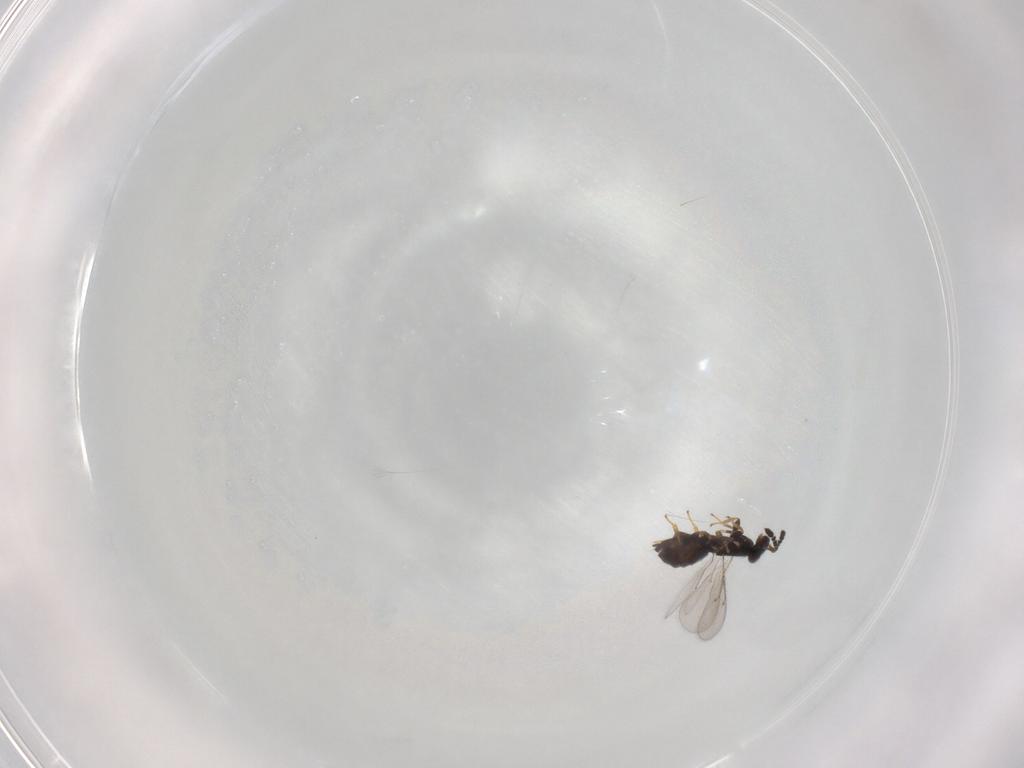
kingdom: Animalia
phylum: Arthropoda
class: Insecta
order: Hymenoptera
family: Eulophidae
